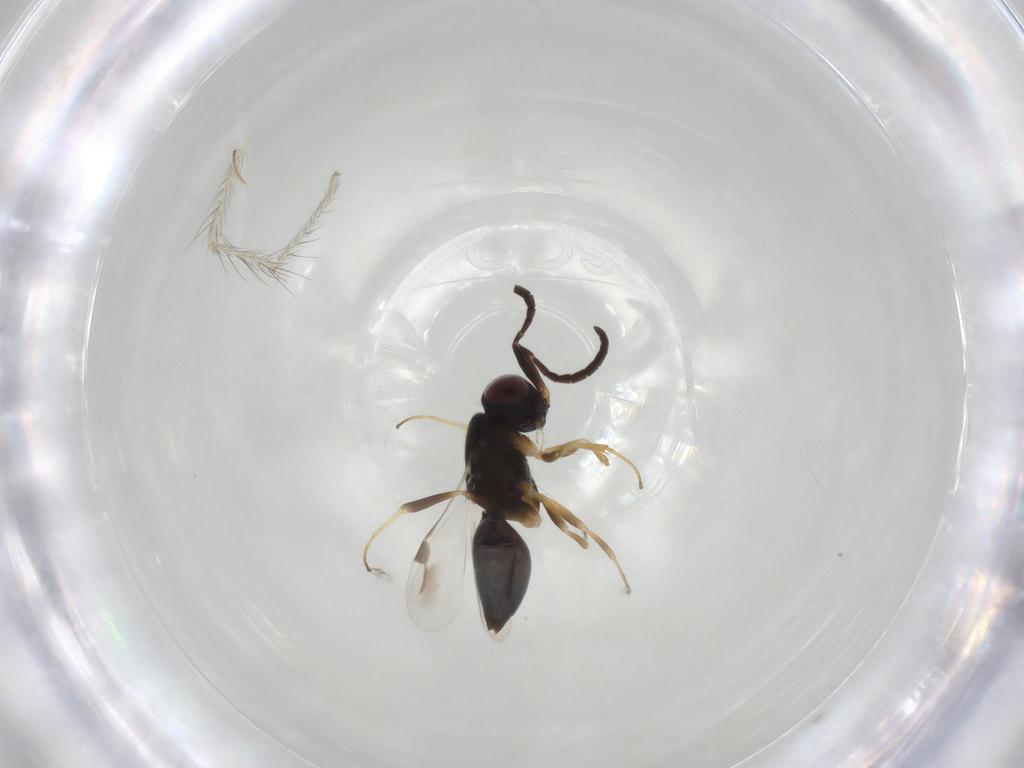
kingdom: Animalia
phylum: Arthropoda
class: Insecta
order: Hymenoptera
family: Megaspilidae
